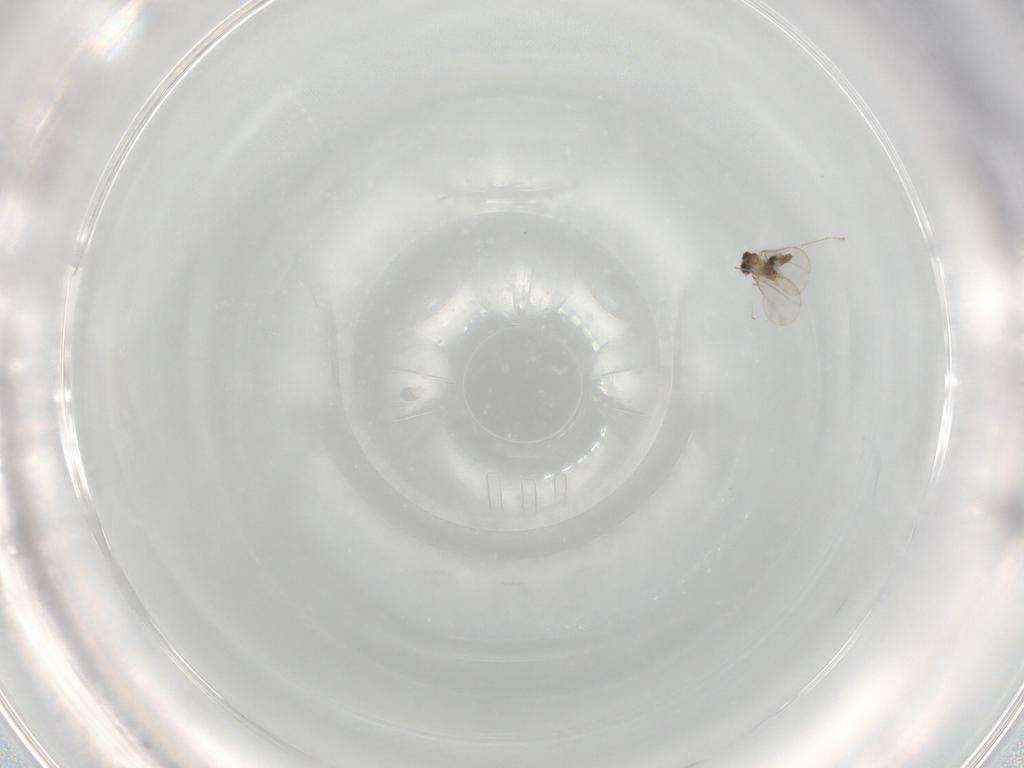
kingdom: Animalia
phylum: Arthropoda
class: Insecta
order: Diptera
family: Cecidomyiidae
